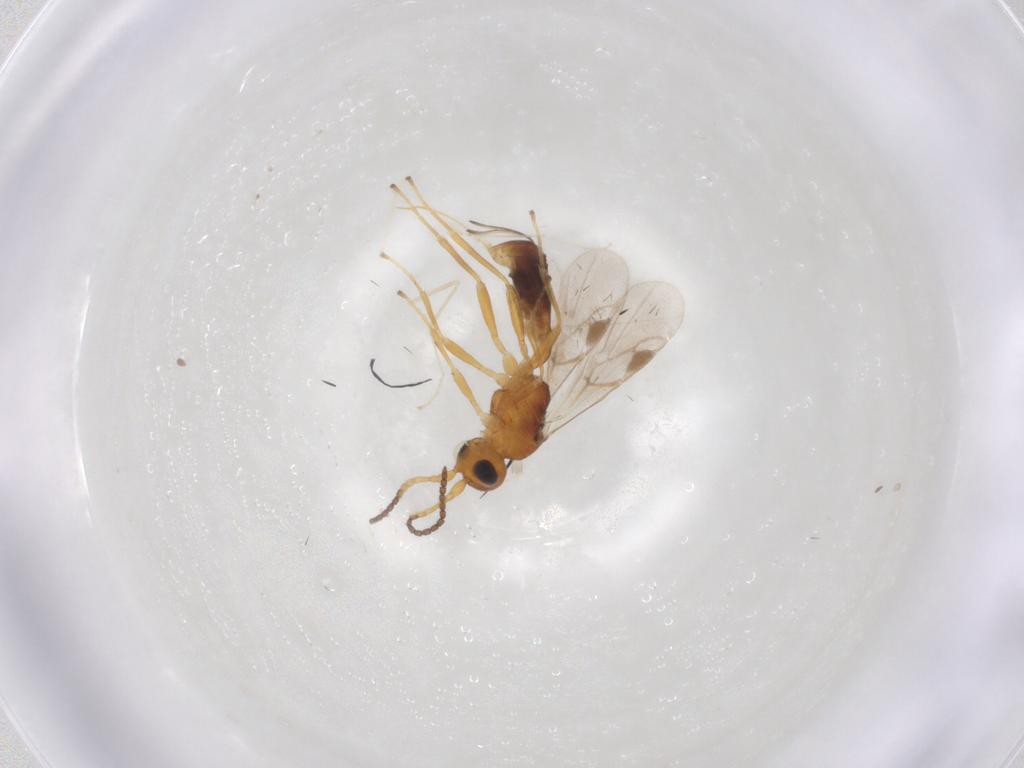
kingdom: Animalia
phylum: Arthropoda
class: Insecta
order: Hymenoptera
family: Braconidae
